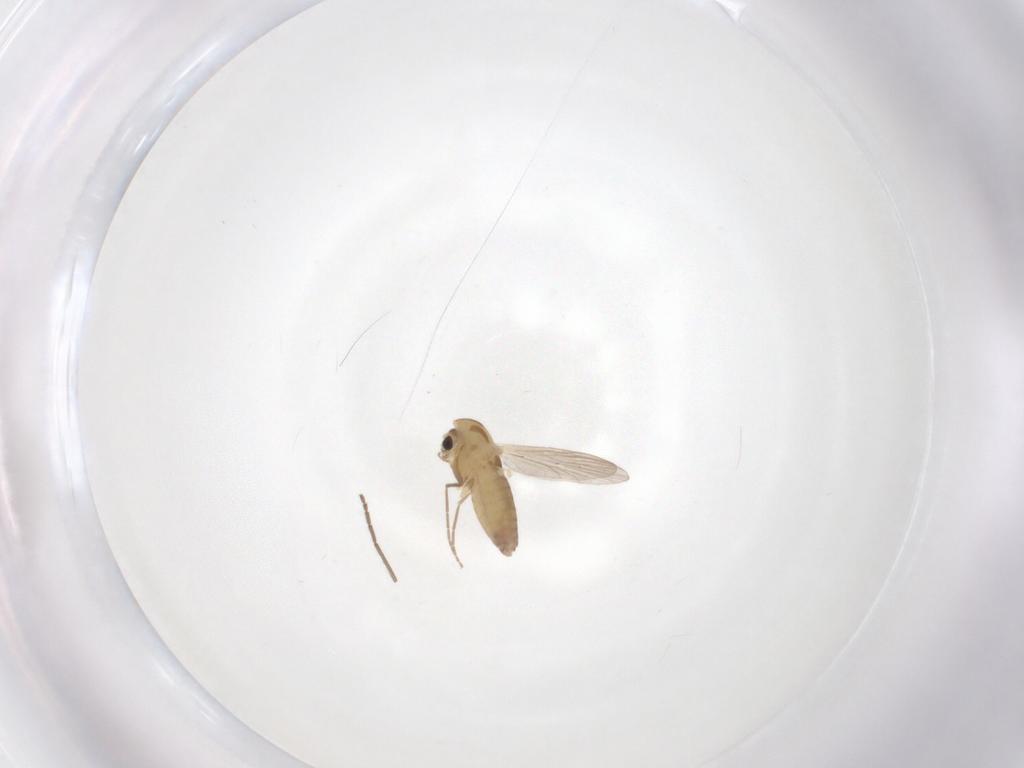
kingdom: Animalia
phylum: Arthropoda
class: Insecta
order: Diptera
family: Chironomidae
